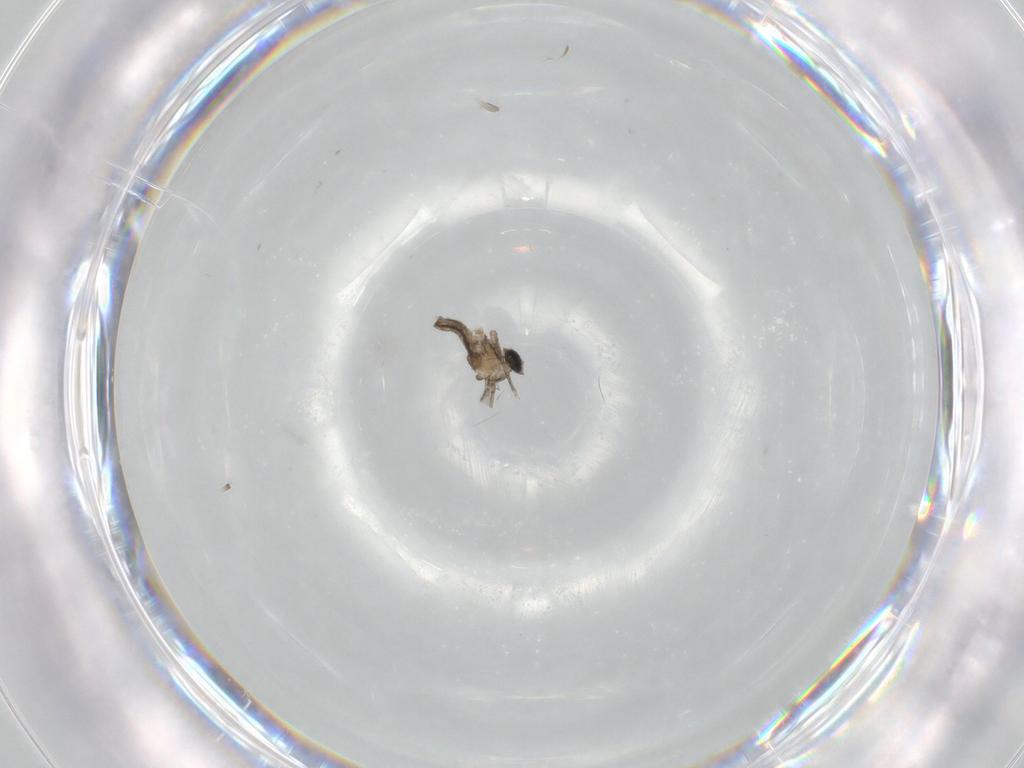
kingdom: Animalia
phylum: Arthropoda
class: Insecta
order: Diptera
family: Cecidomyiidae
